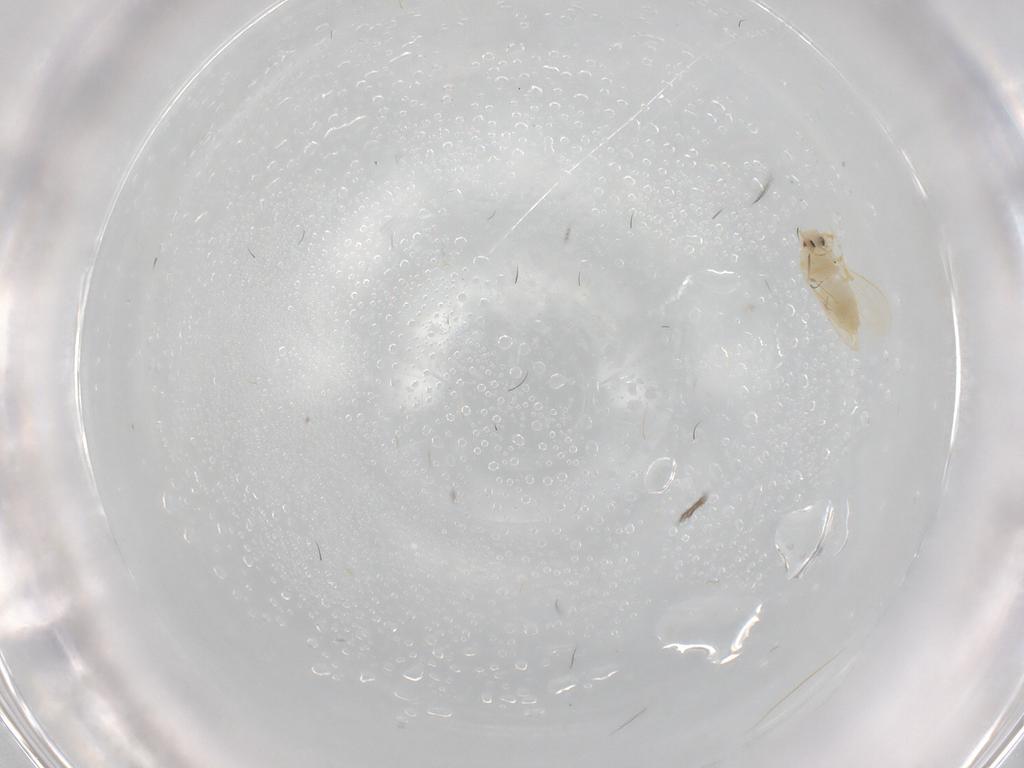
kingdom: Animalia
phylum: Arthropoda
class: Insecta
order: Hemiptera
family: Aleyrodidae
